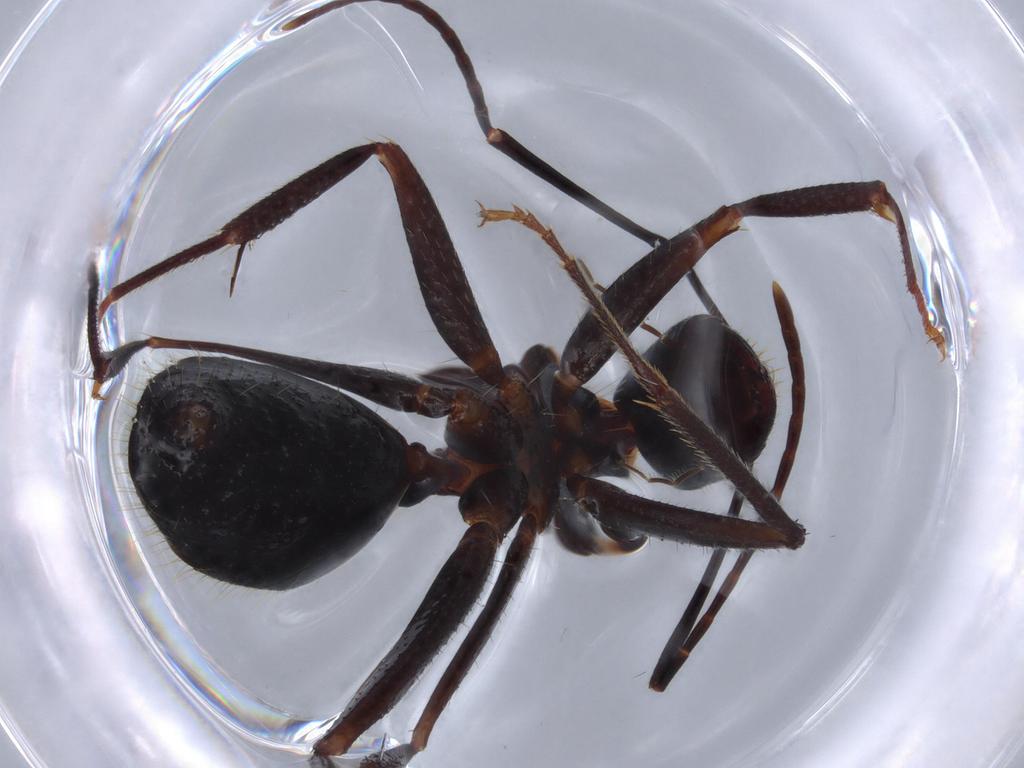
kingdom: Animalia
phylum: Arthropoda
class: Insecta
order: Hymenoptera
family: Formicidae
